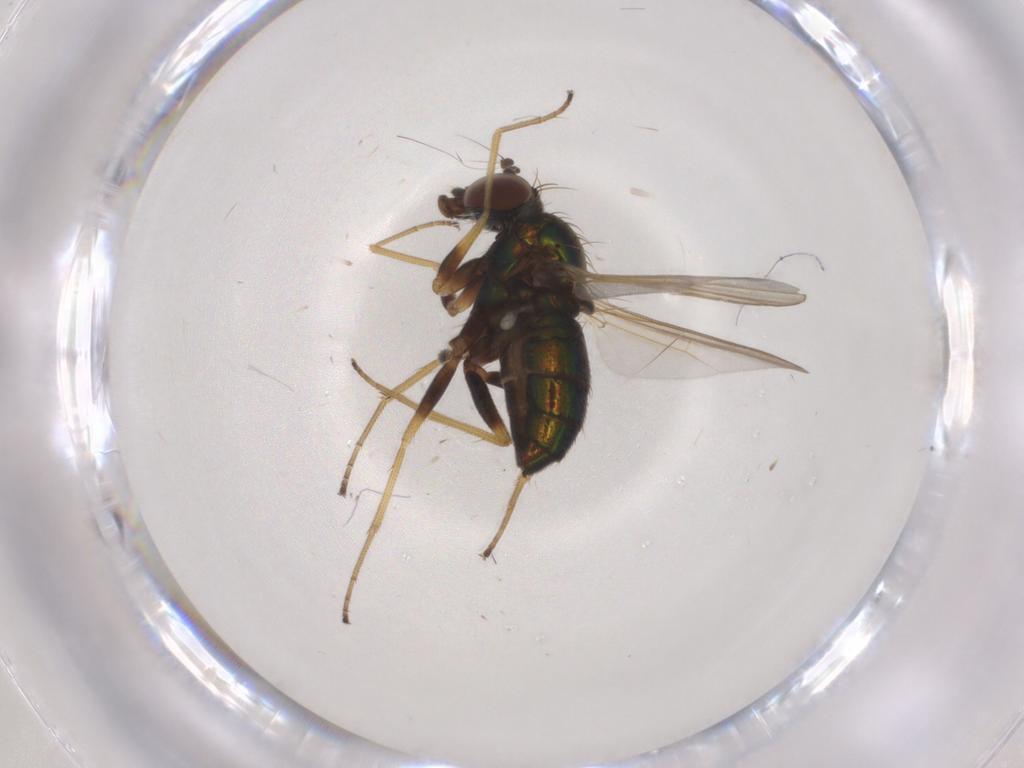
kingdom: Animalia
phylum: Arthropoda
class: Insecta
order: Diptera
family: Dolichopodidae
